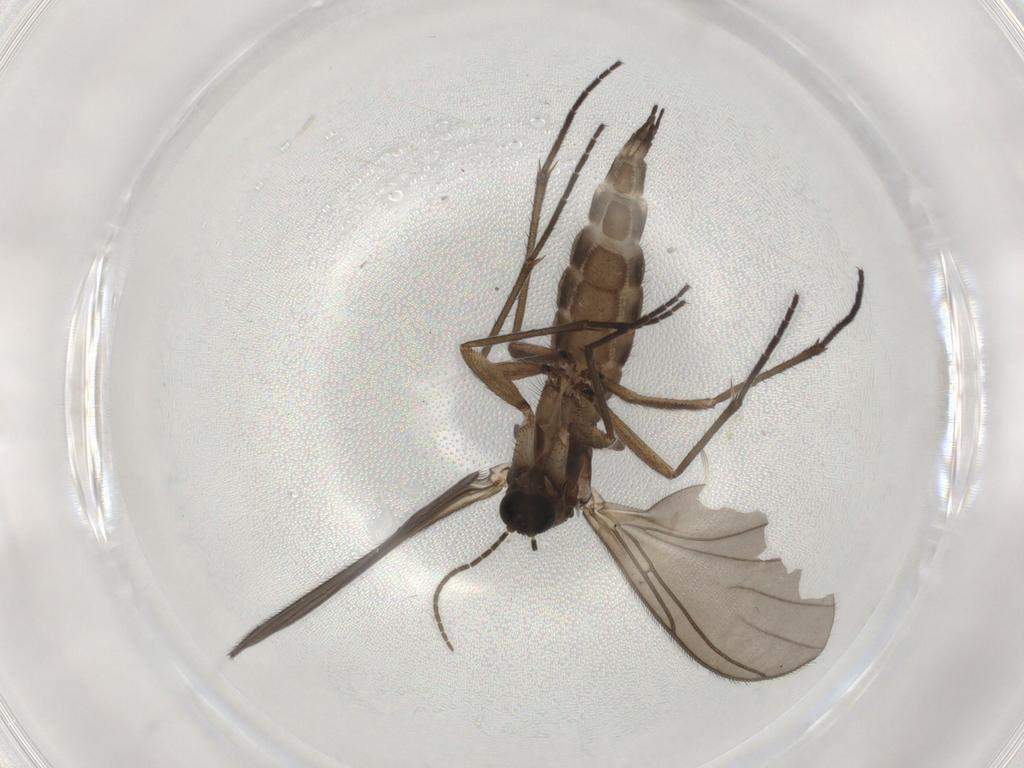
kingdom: Animalia
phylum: Arthropoda
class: Insecta
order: Diptera
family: Sciaridae
